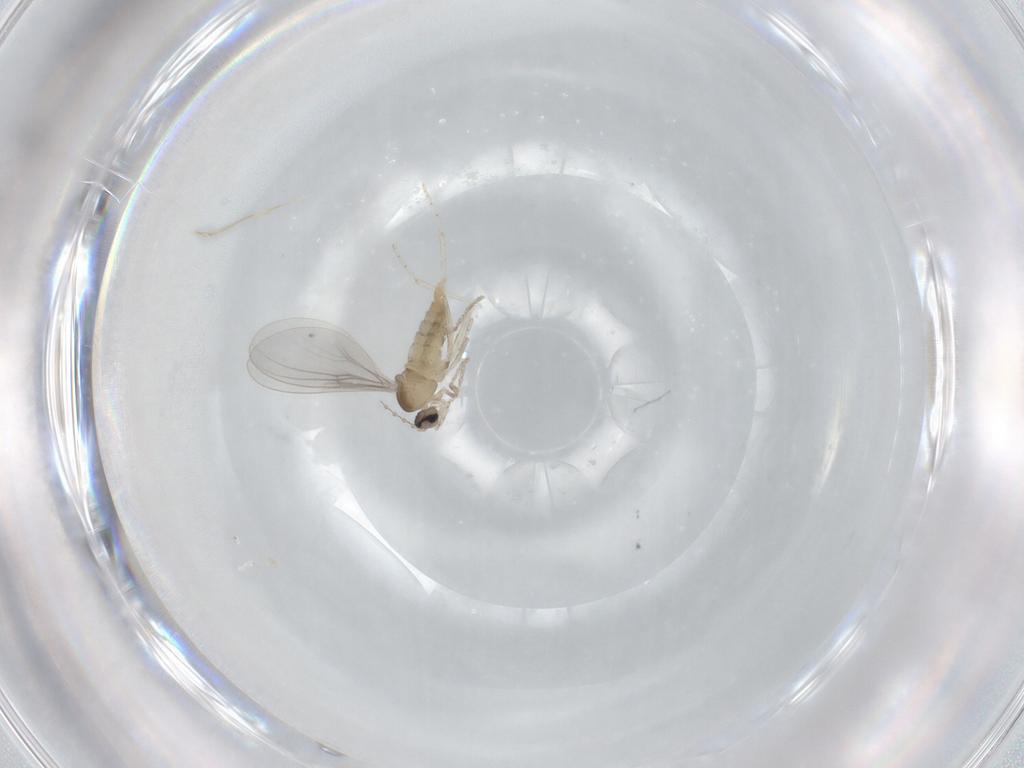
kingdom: Animalia
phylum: Arthropoda
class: Insecta
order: Diptera
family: Cecidomyiidae
